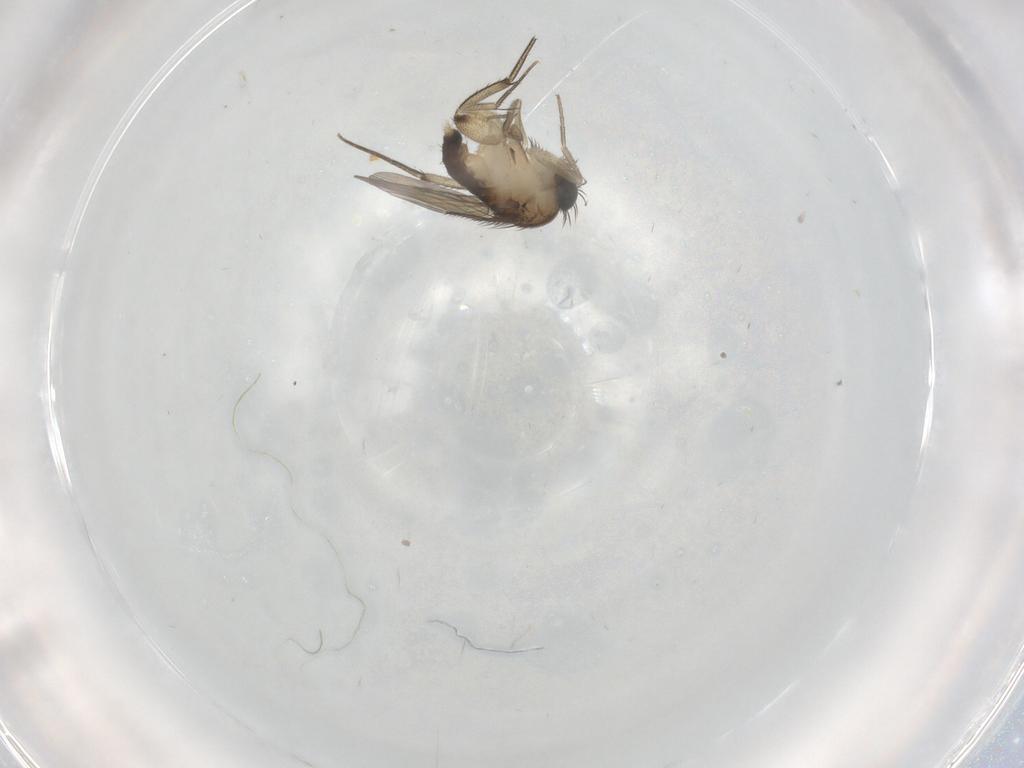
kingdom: Animalia
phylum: Arthropoda
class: Insecta
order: Diptera
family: Phoridae
